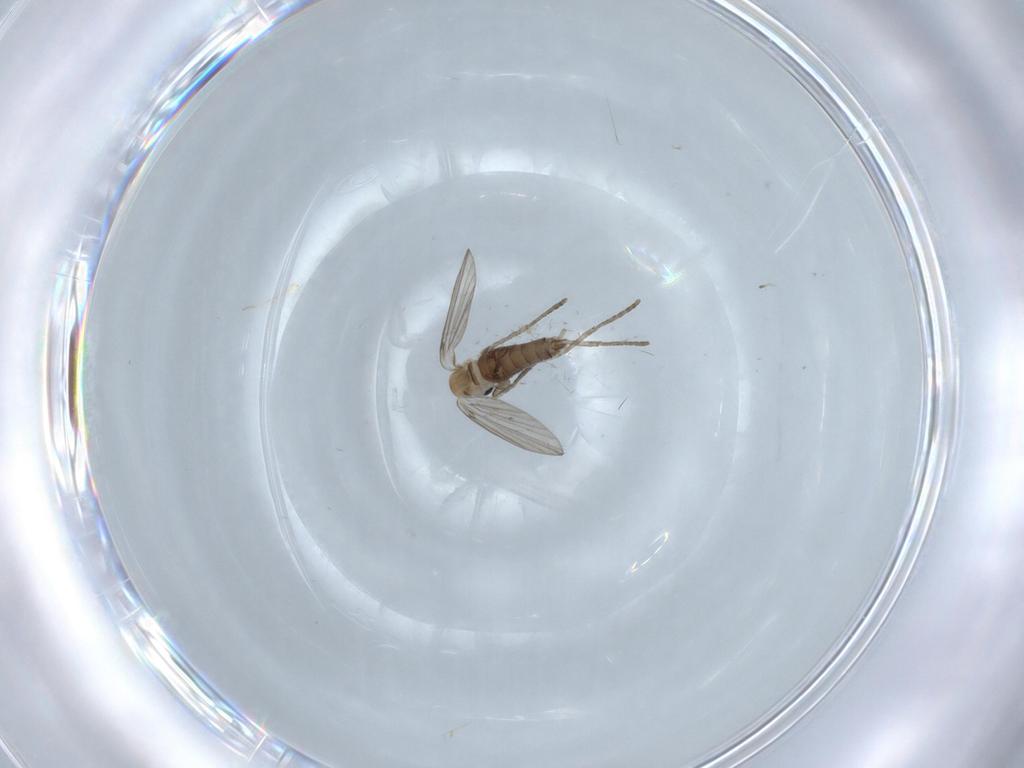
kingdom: Animalia
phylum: Arthropoda
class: Insecta
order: Diptera
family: Psychodidae
